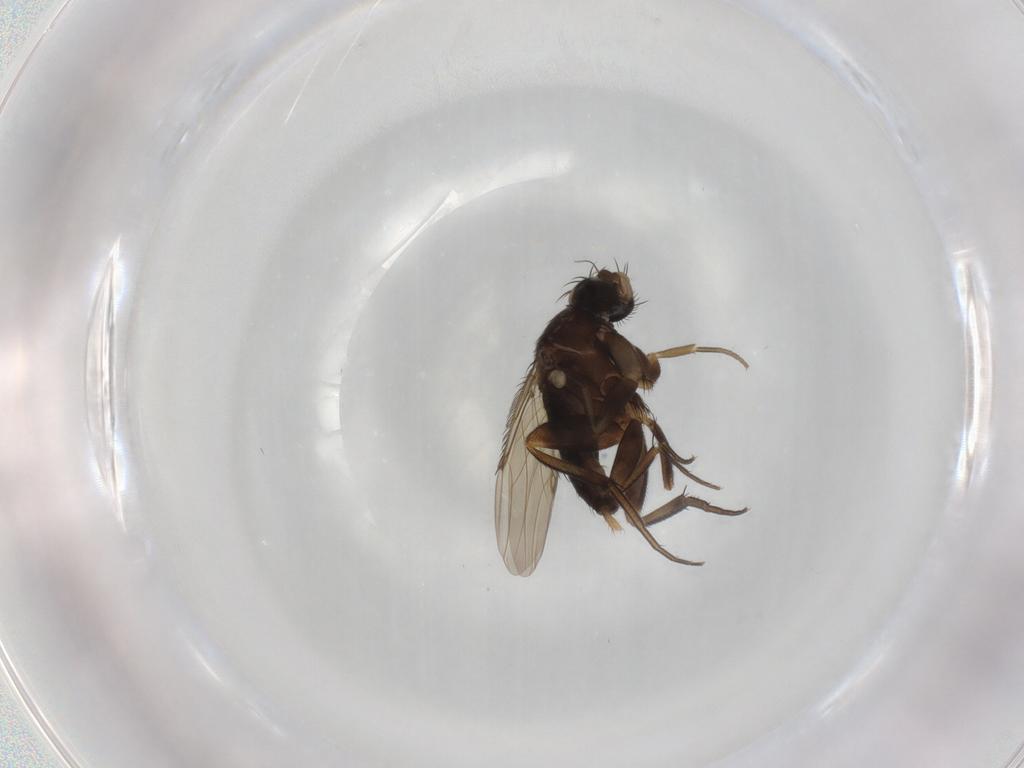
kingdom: Animalia
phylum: Arthropoda
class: Insecta
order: Diptera
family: Phoridae
